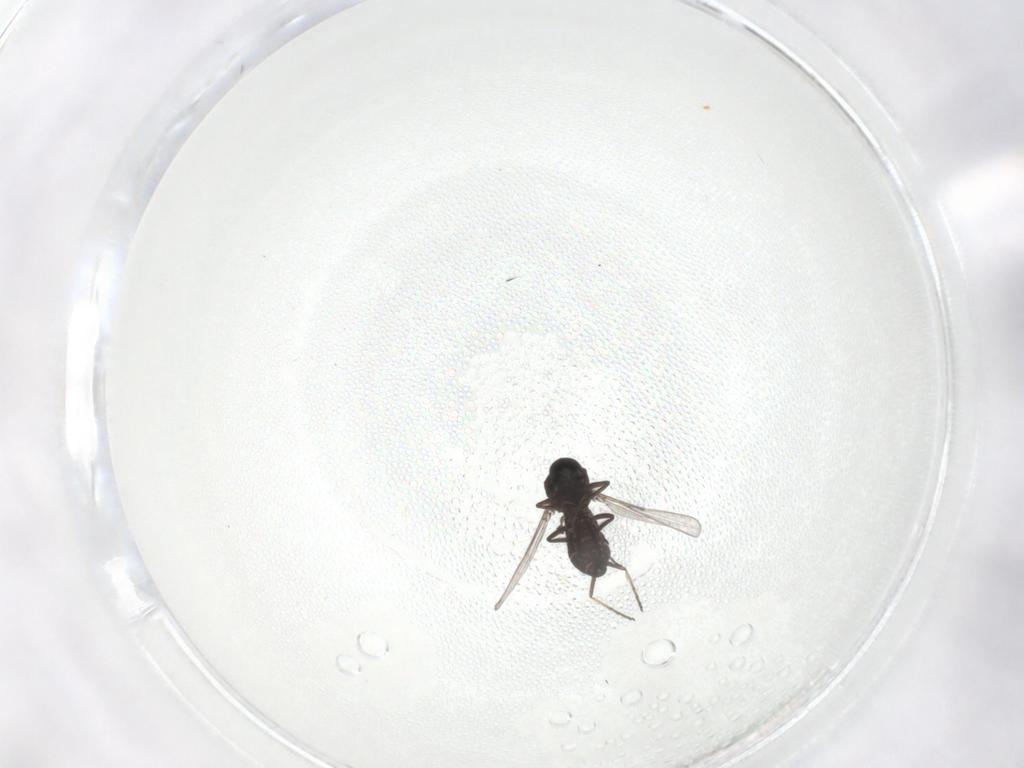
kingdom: Animalia
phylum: Arthropoda
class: Insecta
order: Diptera
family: Ceratopogonidae
